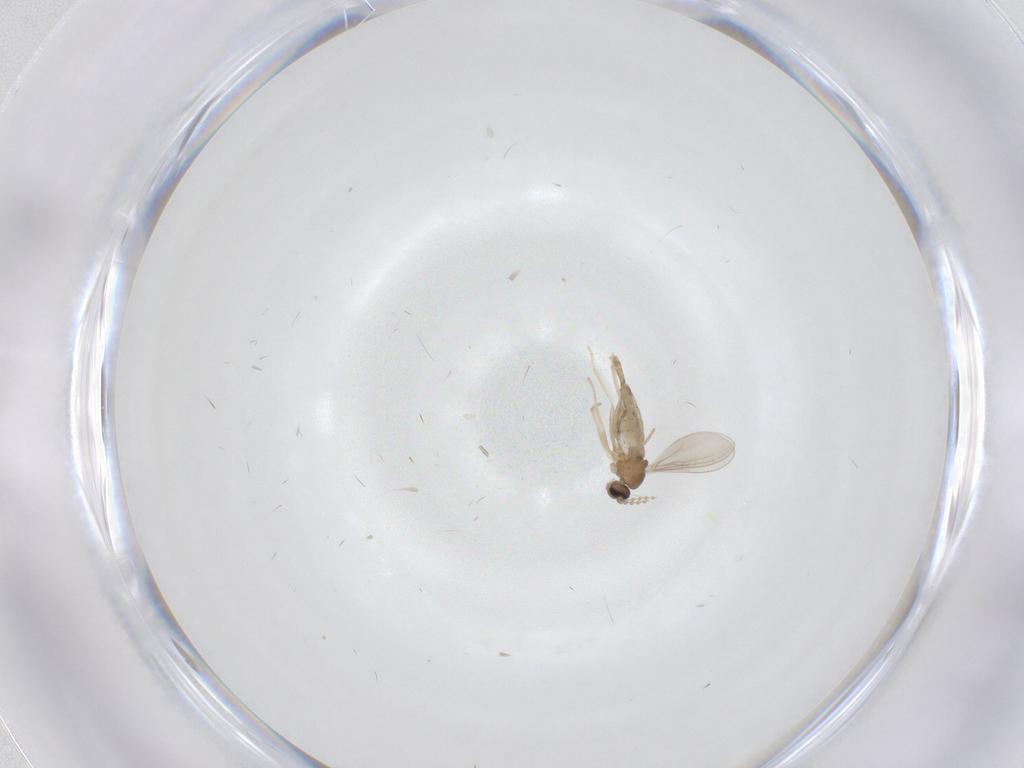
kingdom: Animalia
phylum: Arthropoda
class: Insecta
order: Diptera
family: Cecidomyiidae
